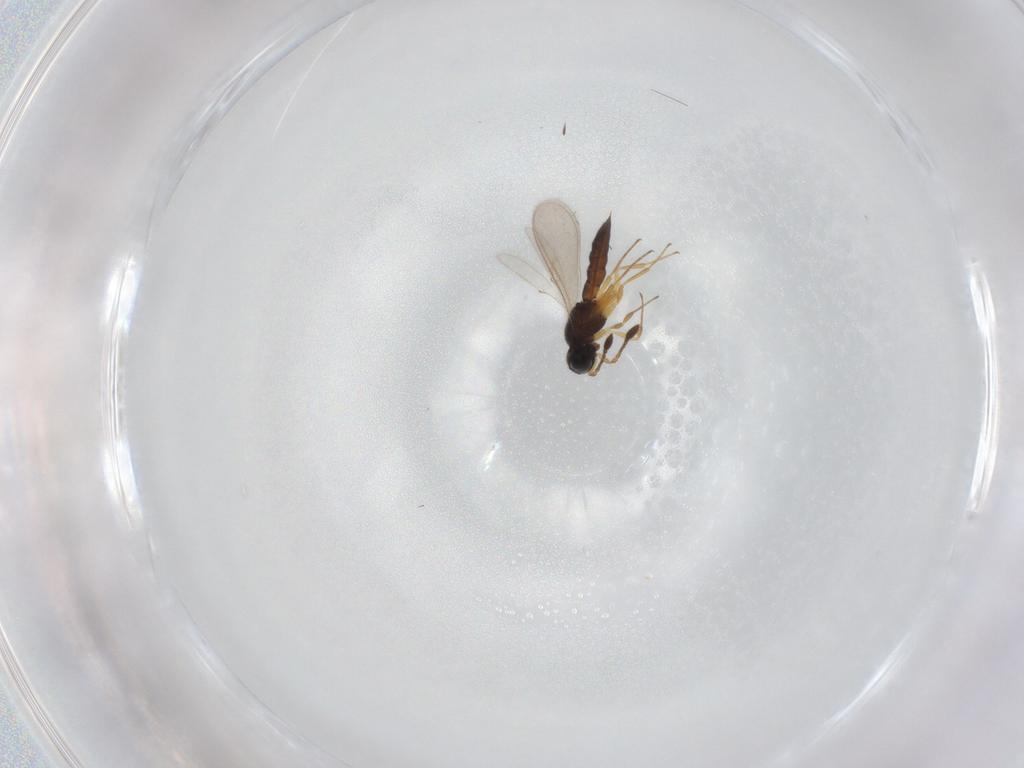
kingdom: Animalia
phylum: Arthropoda
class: Insecta
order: Hymenoptera
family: Scelionidae
